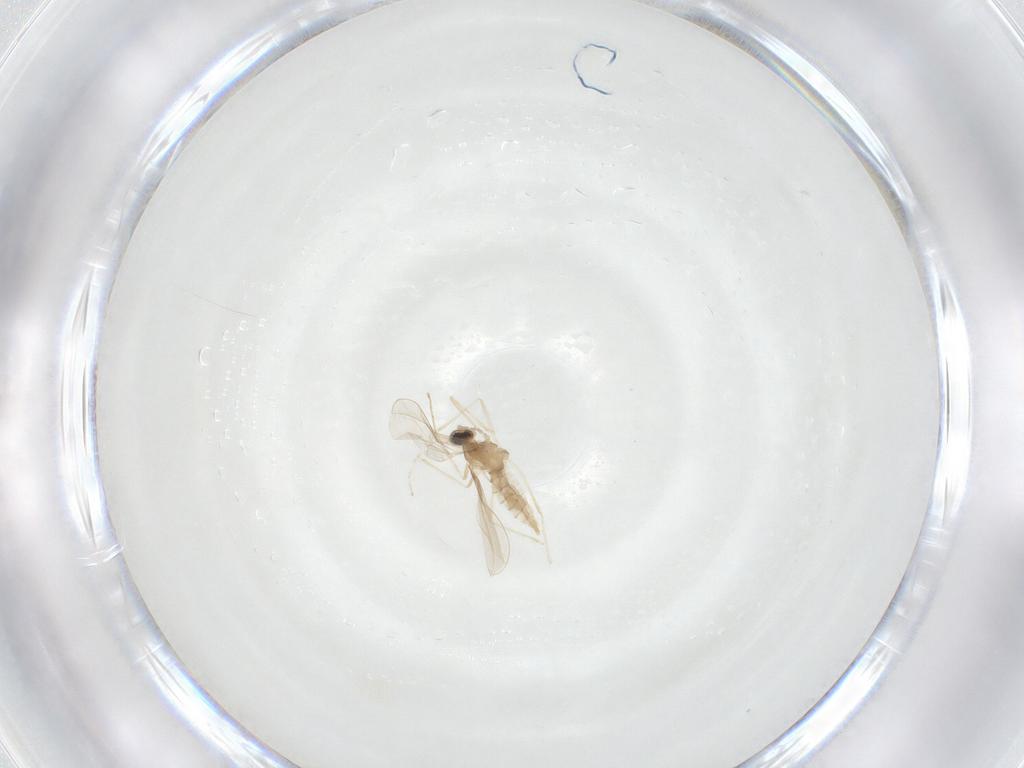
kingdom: Animalia
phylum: Arthropoda
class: Insecta
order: Diptera
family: Cecidomyiidae
